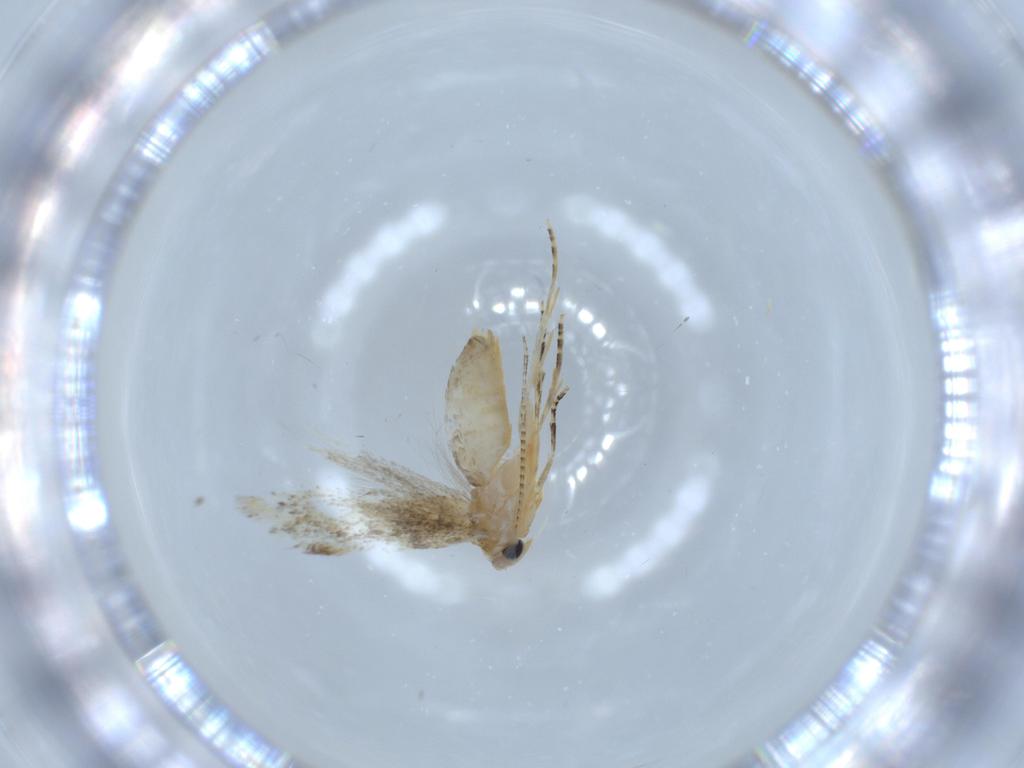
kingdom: Animalia
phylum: Arthropoda
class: Insecta
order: Lepidoptera
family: Bucculatricidae
